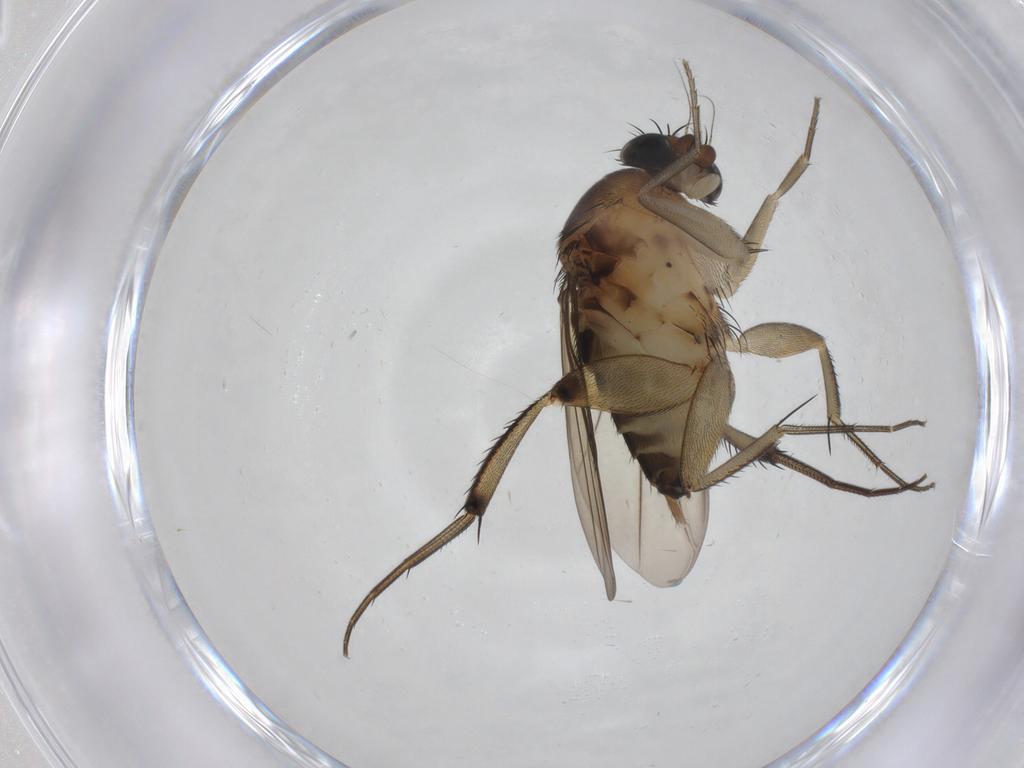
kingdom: Animalia
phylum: Arthropoda
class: Insecta
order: Diptera
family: Phoridae
